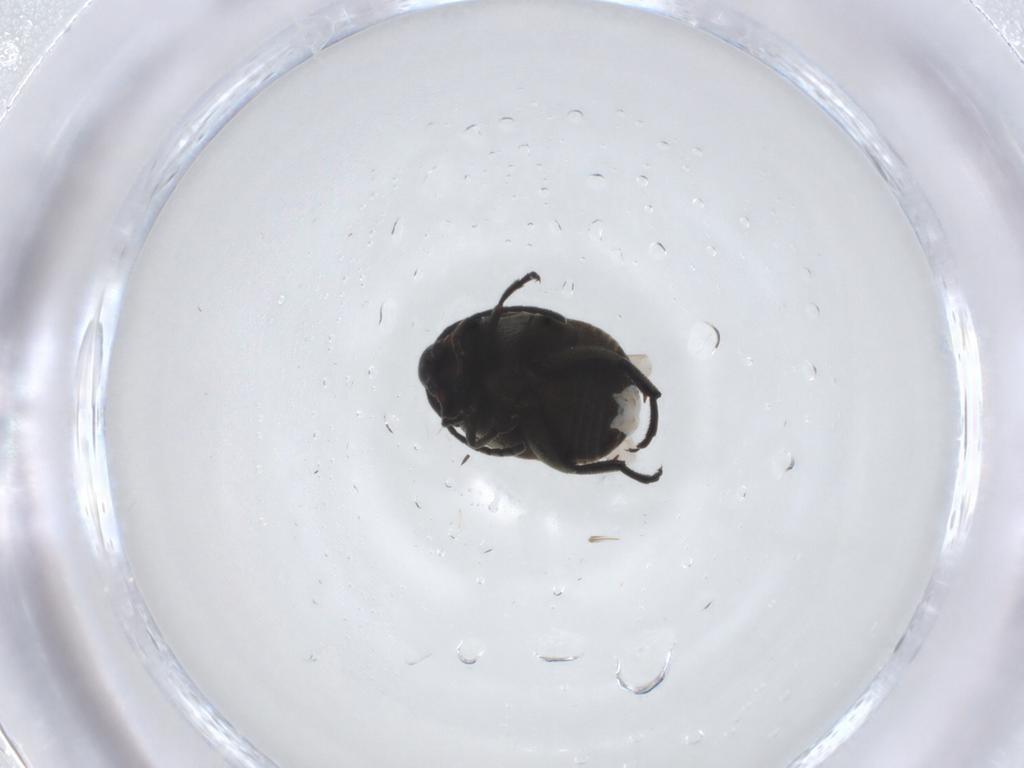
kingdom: Animalia
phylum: Arthropoda
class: Insecta
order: Coleoptera
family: Chrysomelidae
